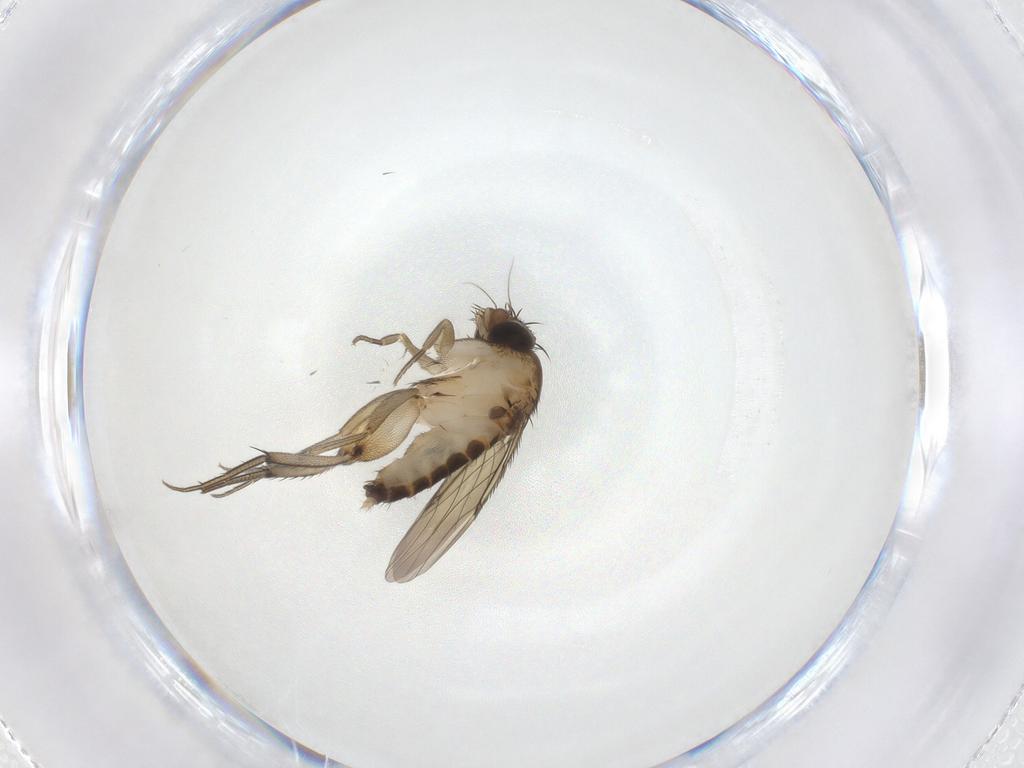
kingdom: Animalia
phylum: Arthropoda
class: Insecta
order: Diptera
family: Phoridae
